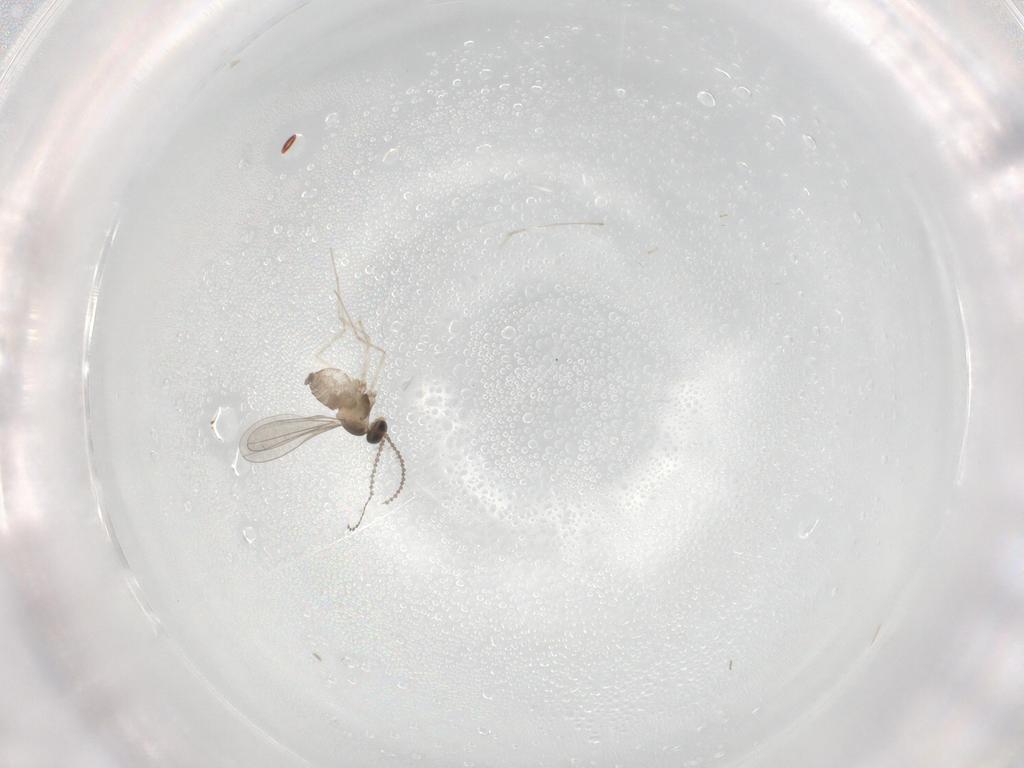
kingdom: Animalia
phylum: Arthropoda
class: Insecta
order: Diptera
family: Cecidomyiidae
